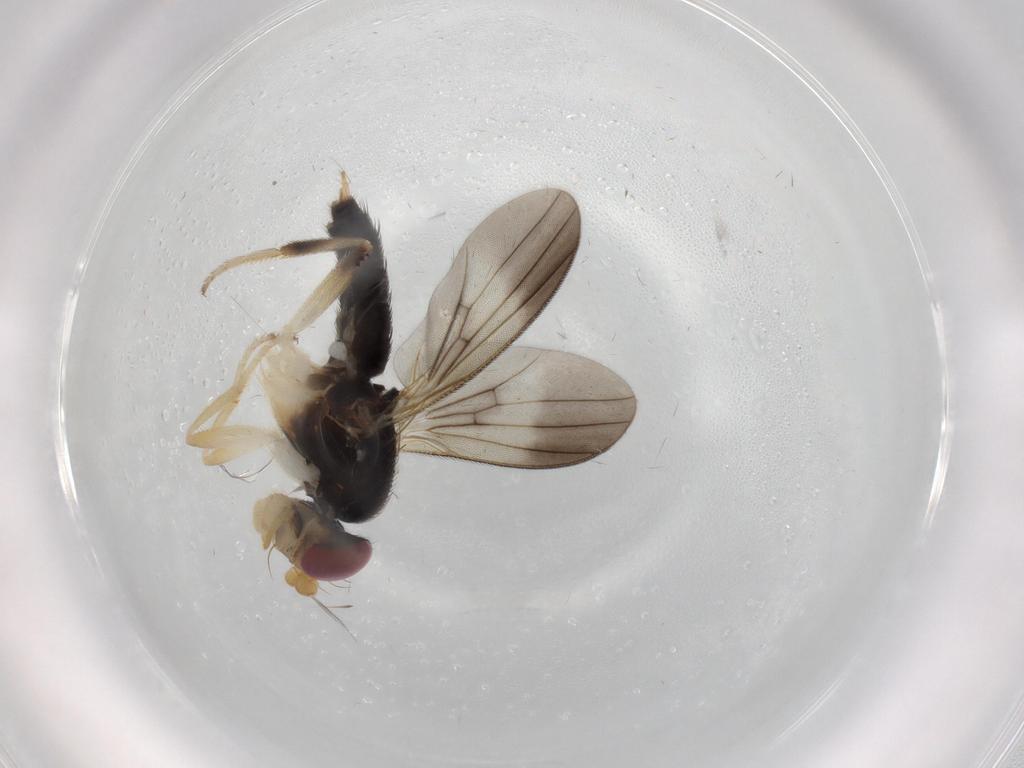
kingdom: Animalia
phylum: Arthropoda
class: Insecta
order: Diptera
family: Clusiidae
